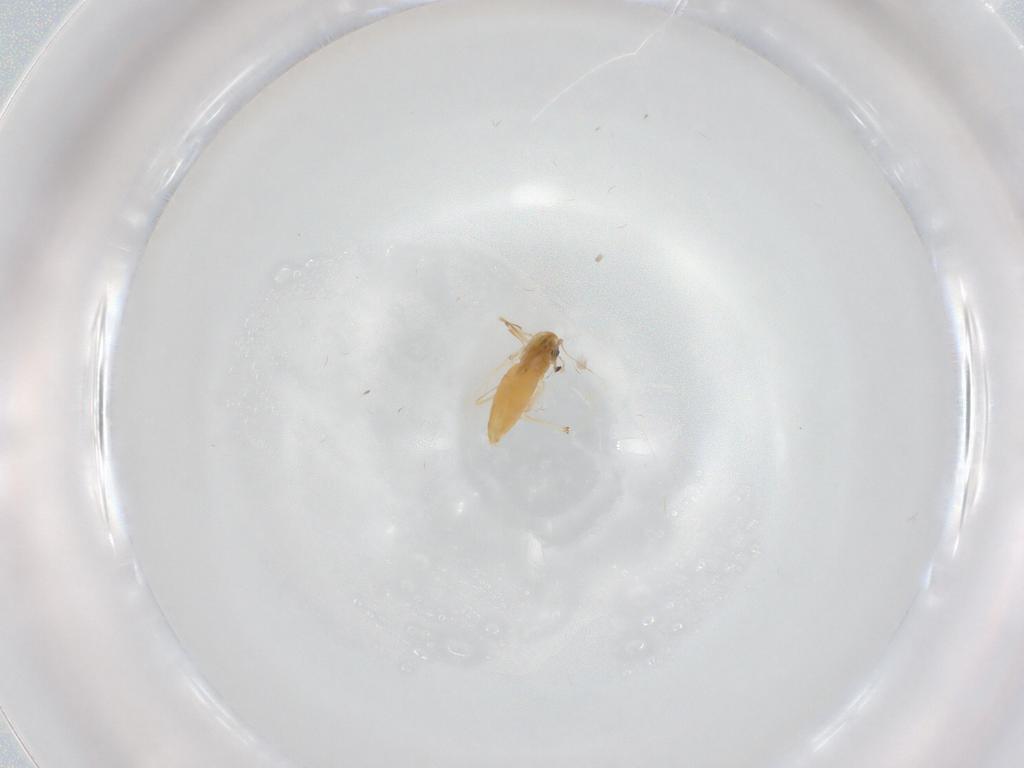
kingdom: Animalia
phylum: Arthropoda
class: Insecta
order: Diptera
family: Chironomidae
